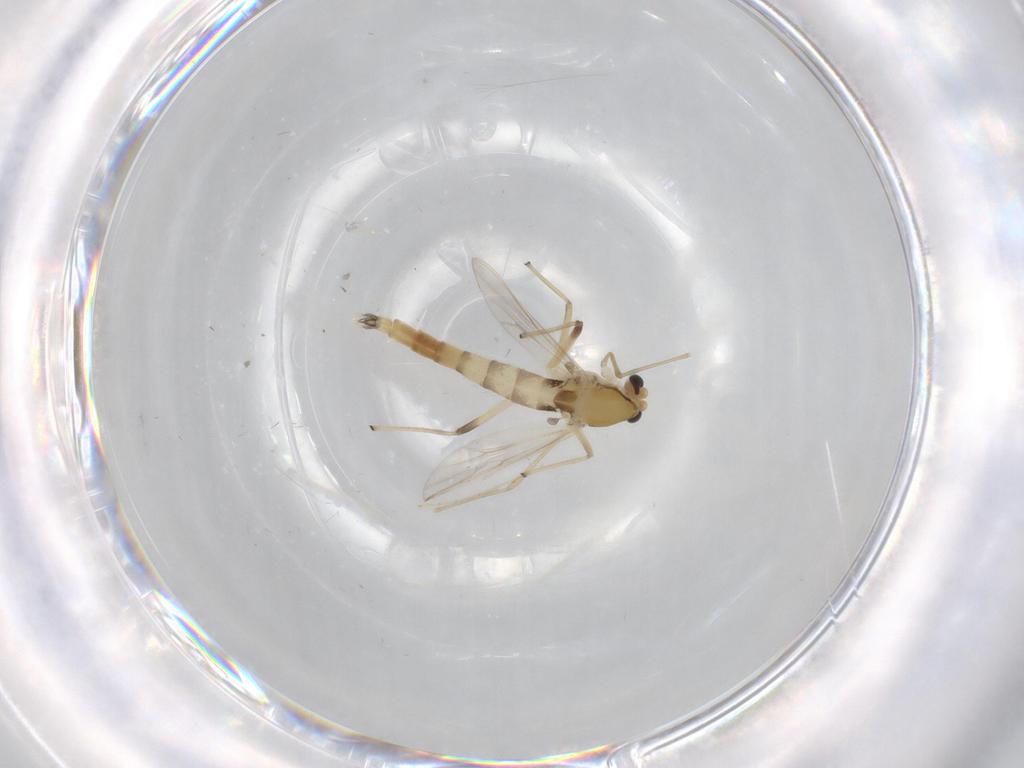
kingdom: Animalia
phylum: Arthropoda
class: Insecta
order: Diptera
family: Chironomidae
